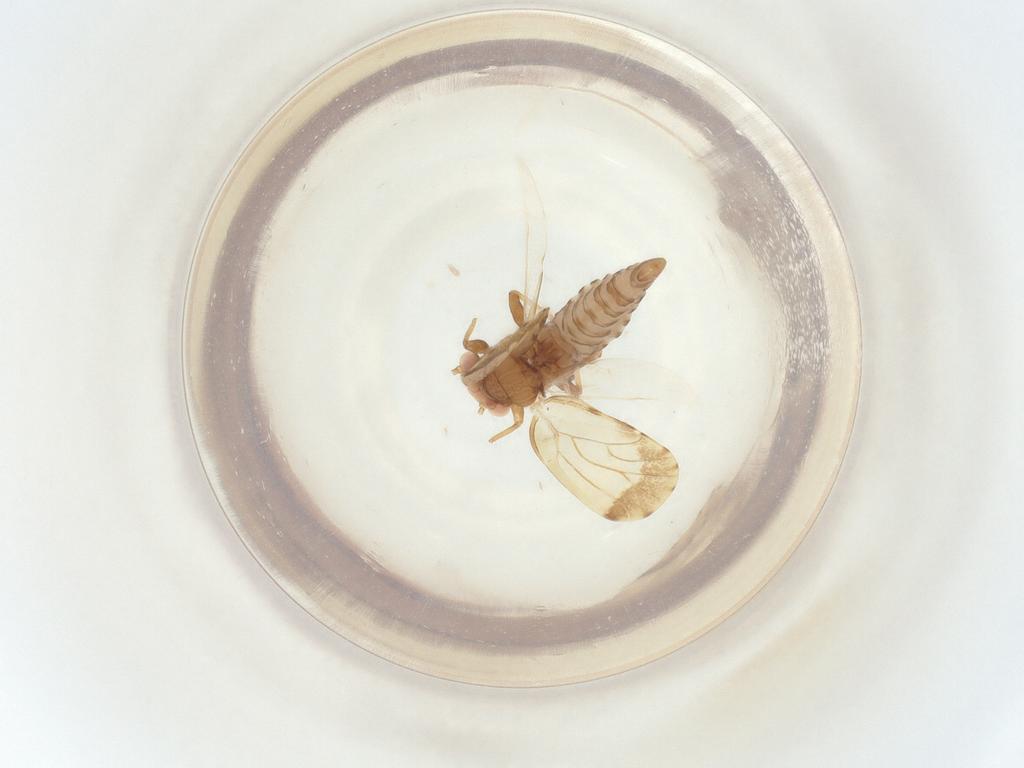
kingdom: Animalia
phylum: Arthropoda
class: Insecta
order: Hemiptera
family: Psyllidae
